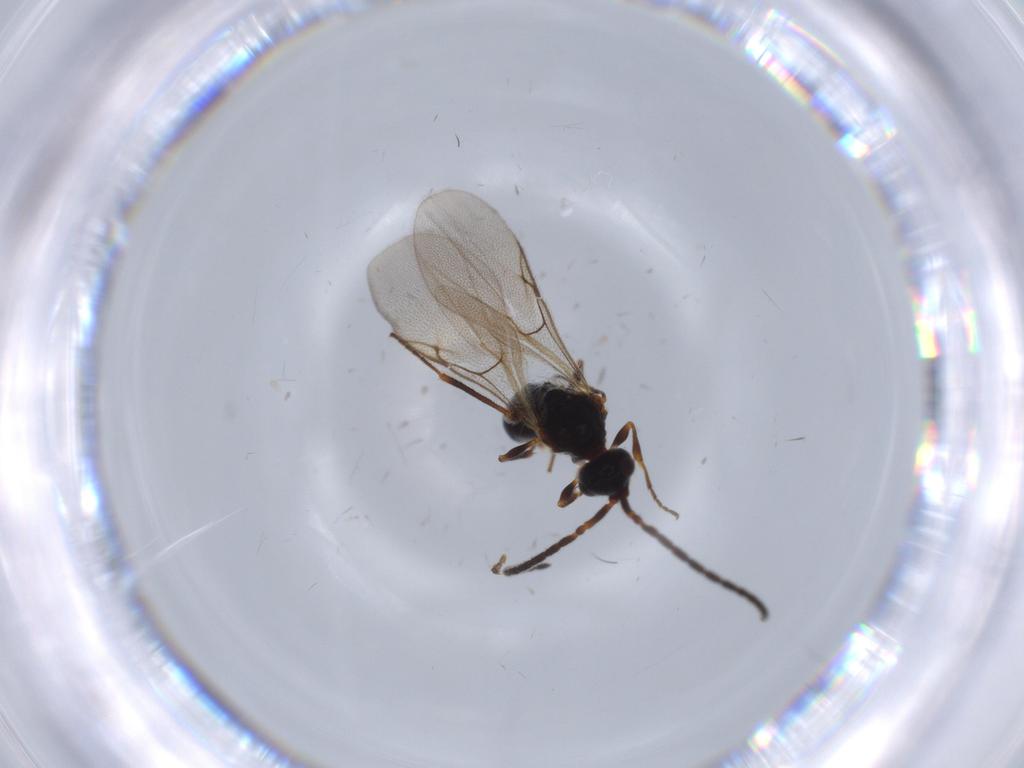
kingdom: Animalia
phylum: Arthropoda
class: Insecta
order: Hymenoptera
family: Ichneumonidae
